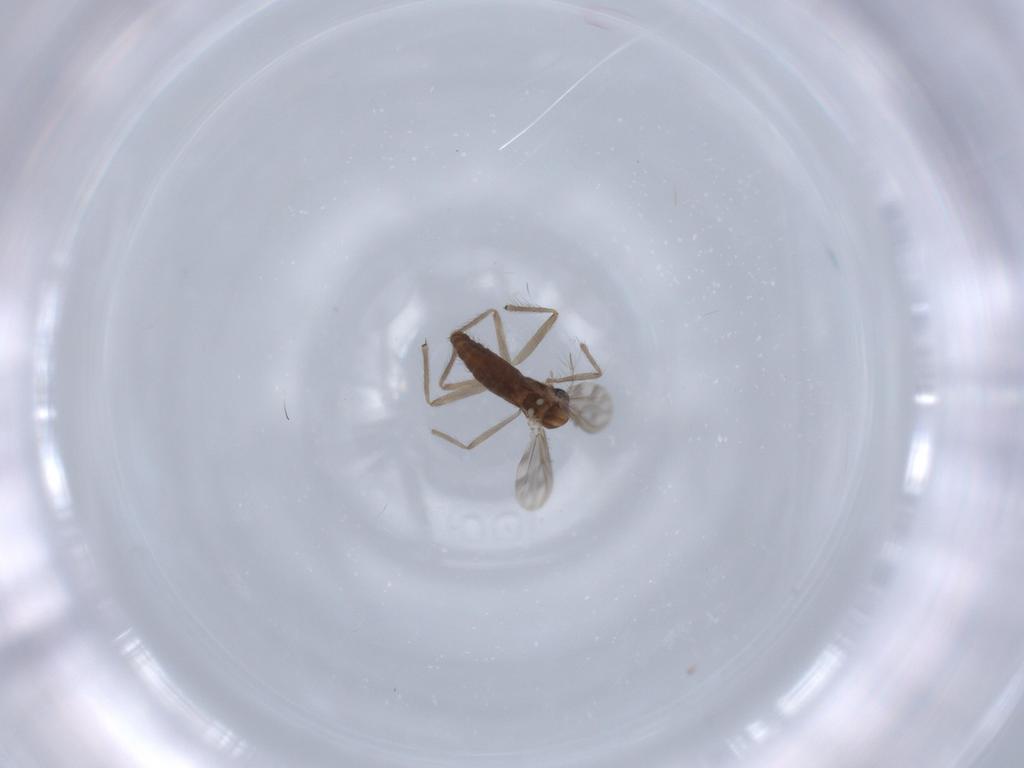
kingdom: Animalia
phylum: Arthropoda
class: Insecta
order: Diptera
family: Chironomidae
